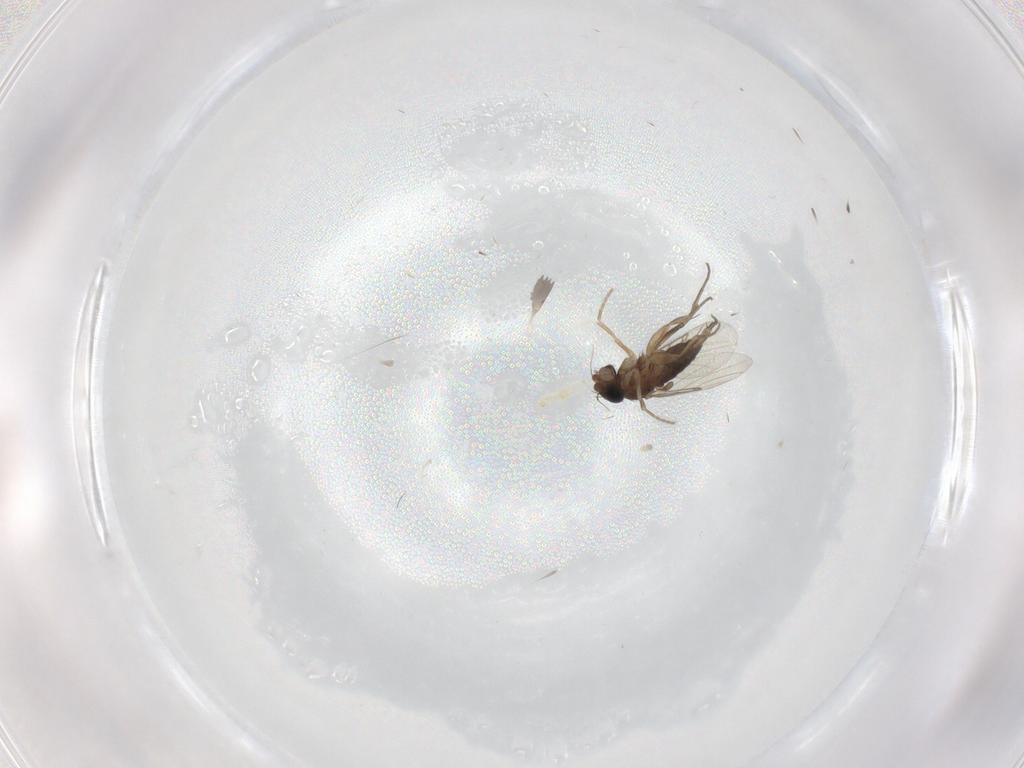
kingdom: Animalia
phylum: Arthropoda
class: Insecta
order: Diptera
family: Phoridae
